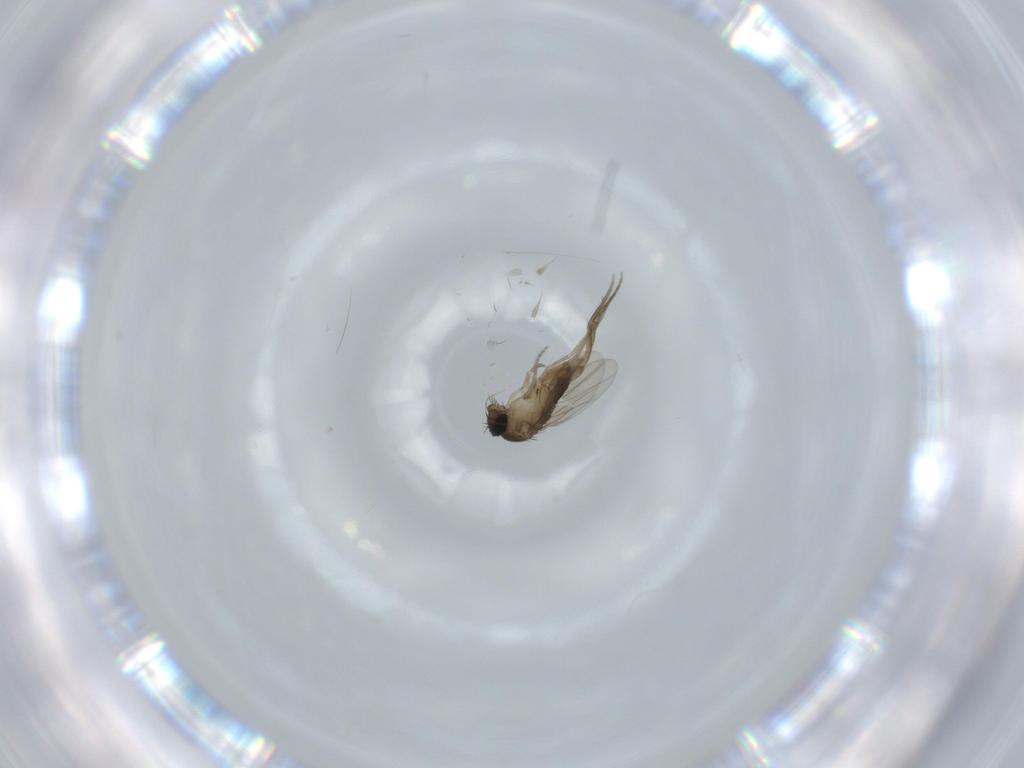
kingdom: Animalia
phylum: Arthropoda
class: Insecta
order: Diptera
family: Phoridae
